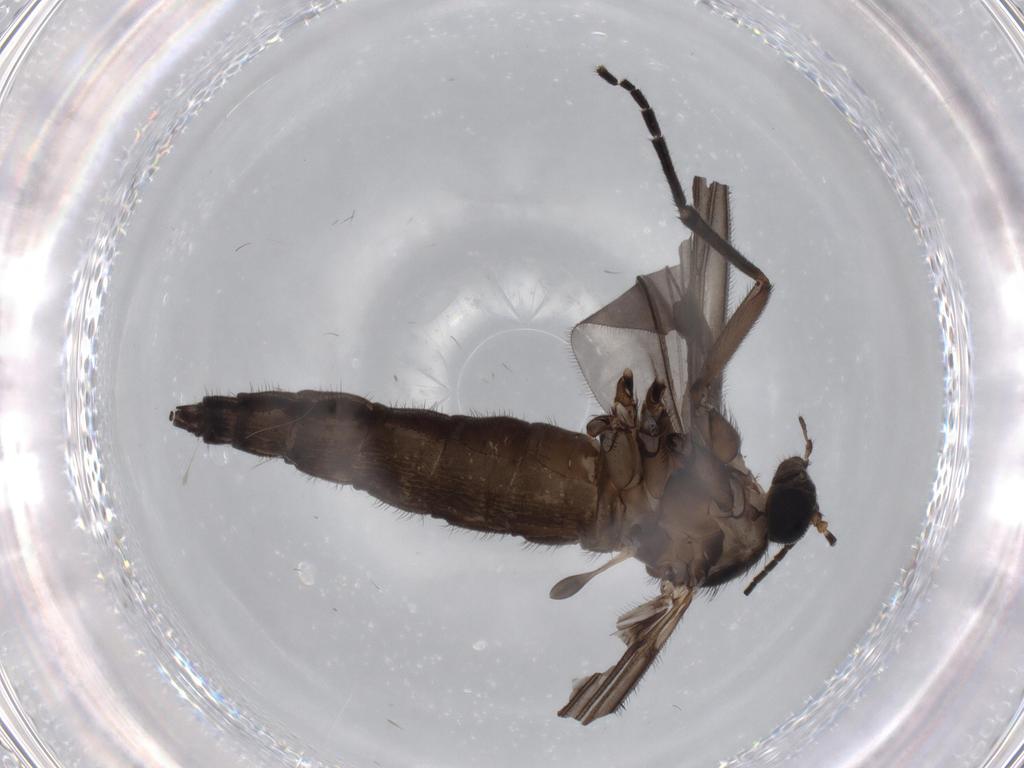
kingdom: Animalia
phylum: Arthropoda
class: Insecta
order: Diptera
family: Sciaridae
